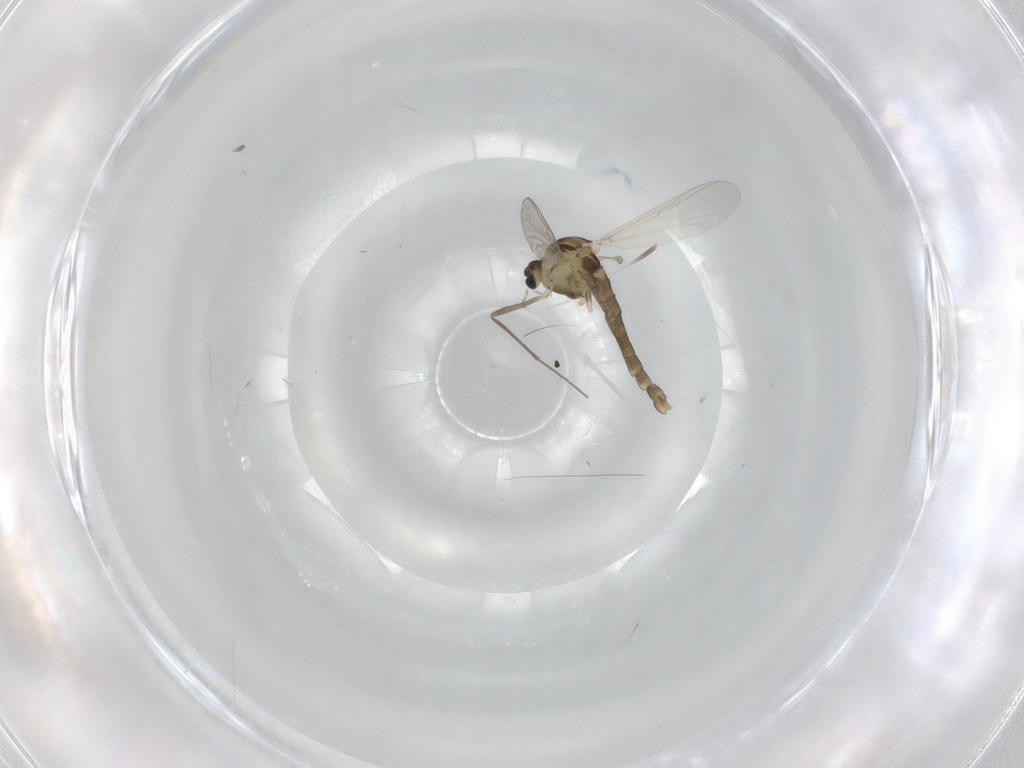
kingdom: Animalia
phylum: Arthropoda
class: Insecta
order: Diptera
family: Chironomidae
